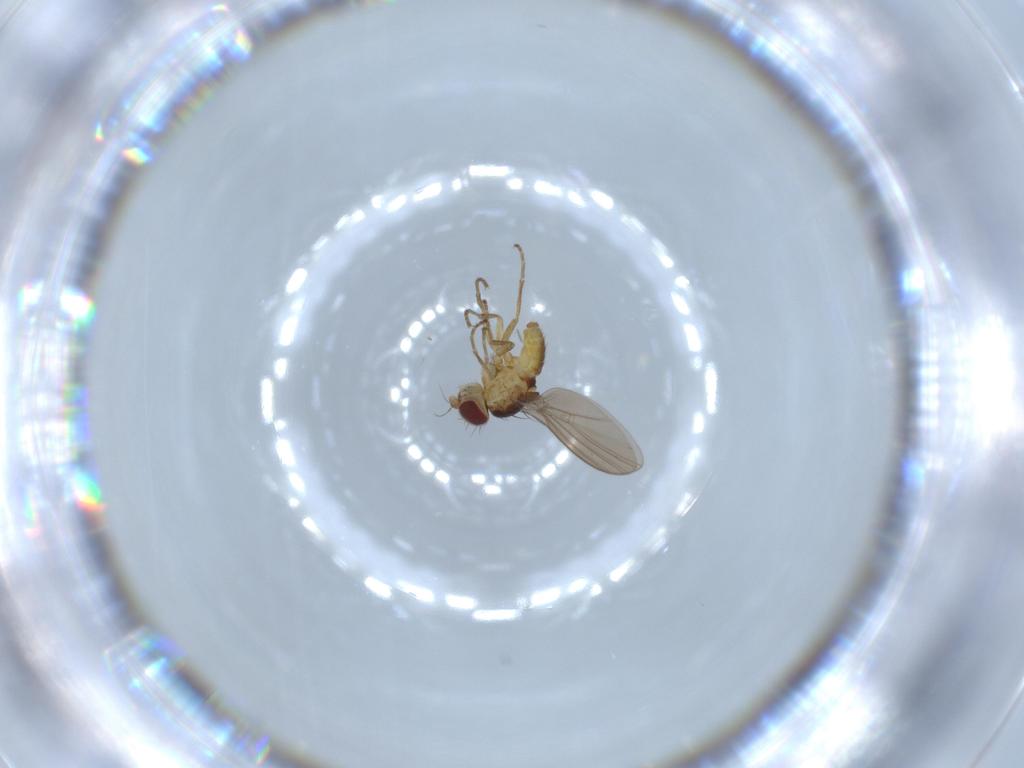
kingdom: Animalia
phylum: Arthropoda
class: Insecta
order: Diptera
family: Agromyzidae
